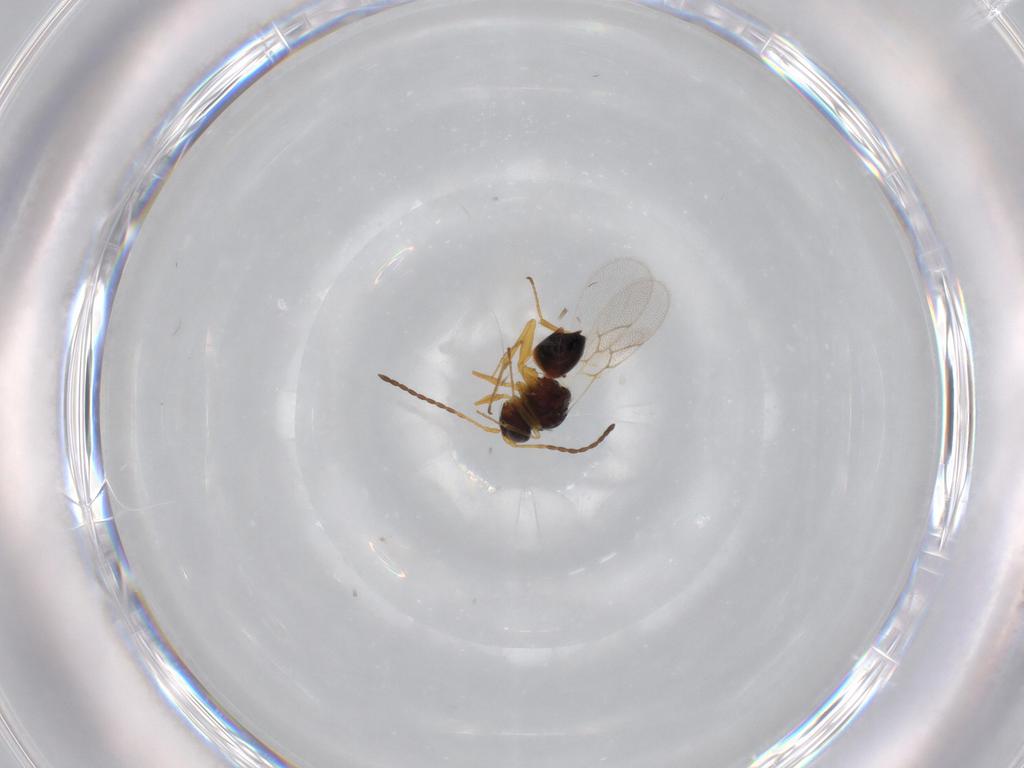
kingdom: Animalia
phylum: Arthropoda
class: Insecta
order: Hymenoptera
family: Figitidae
